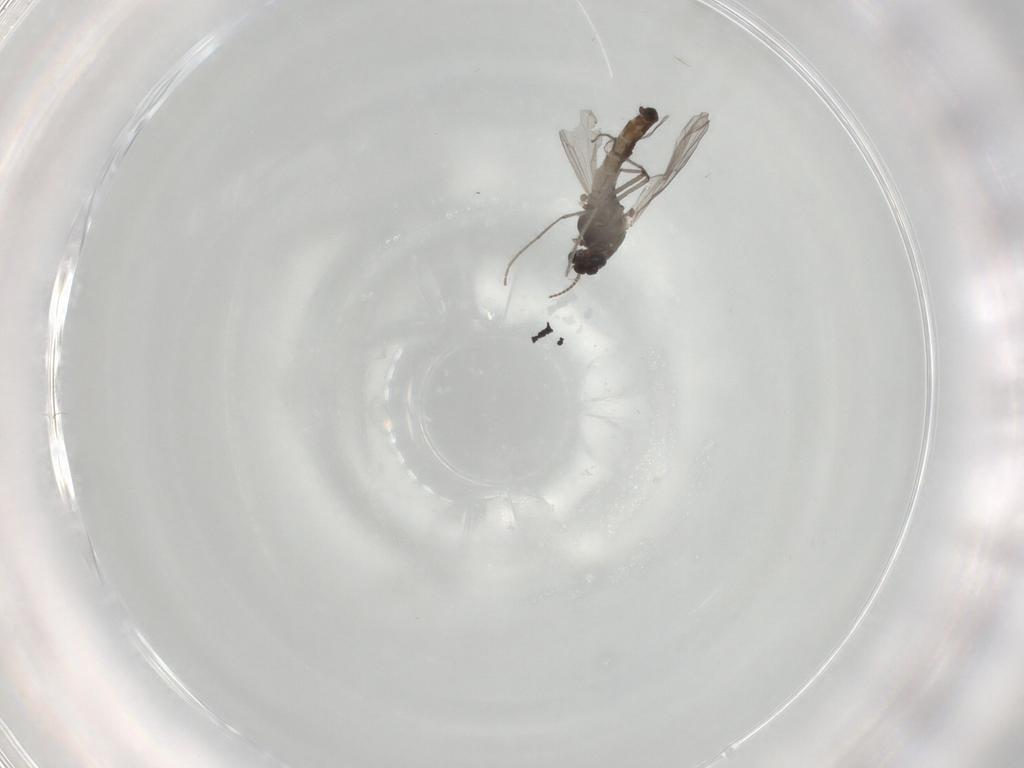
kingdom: Animalia
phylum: Arthropoda
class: Insecta
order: Diptera
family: Chironomidae
